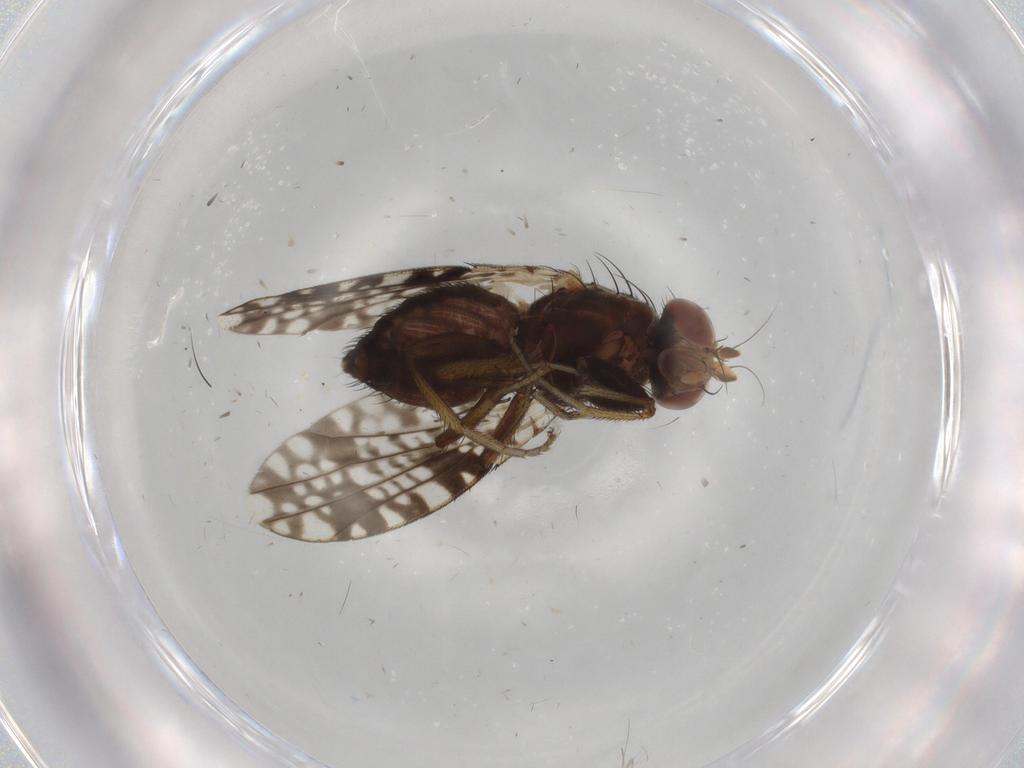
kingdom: Animalia
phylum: Arthropoda
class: Insecta
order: Diptera
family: Tephritidae
